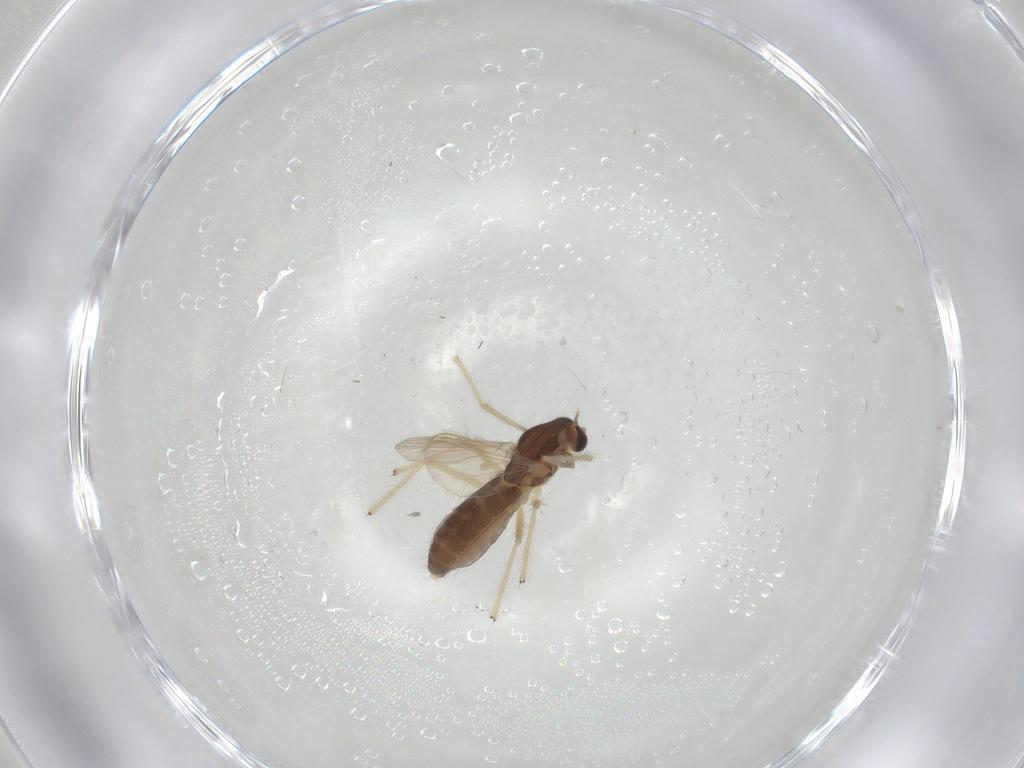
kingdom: Animalia
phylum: Arthropoda
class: Insecta
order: Diptera
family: Chironomidae
